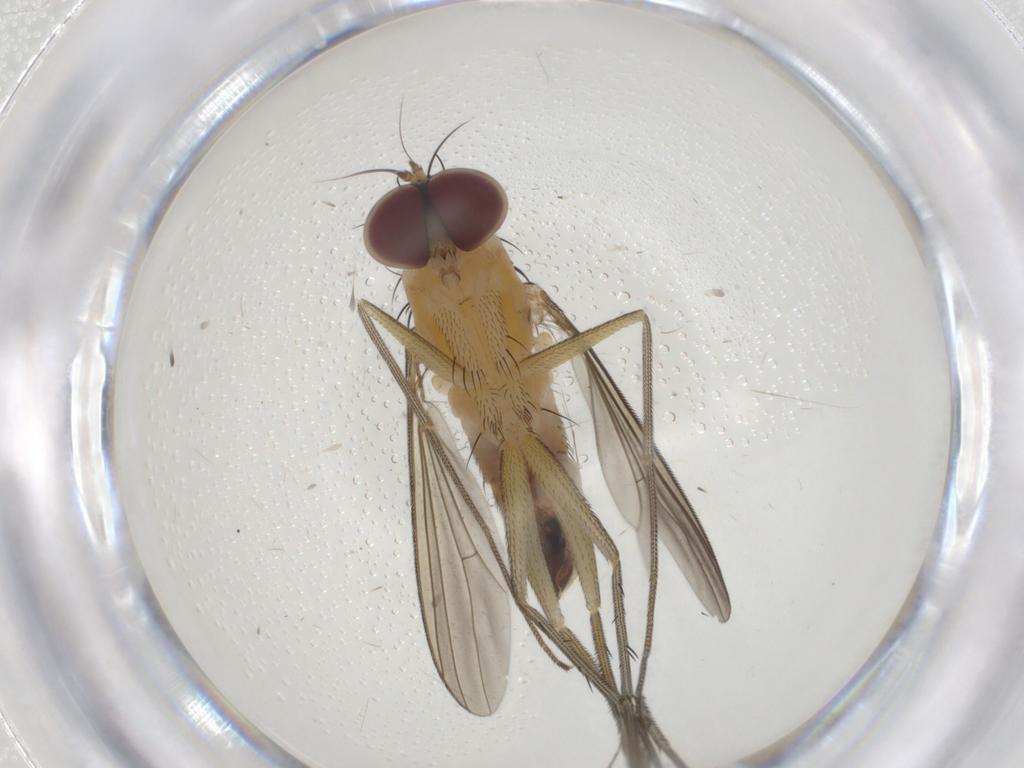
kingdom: Animalia
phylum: Arthropoda
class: Insecta
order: Diptera
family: Dolichopodidae
